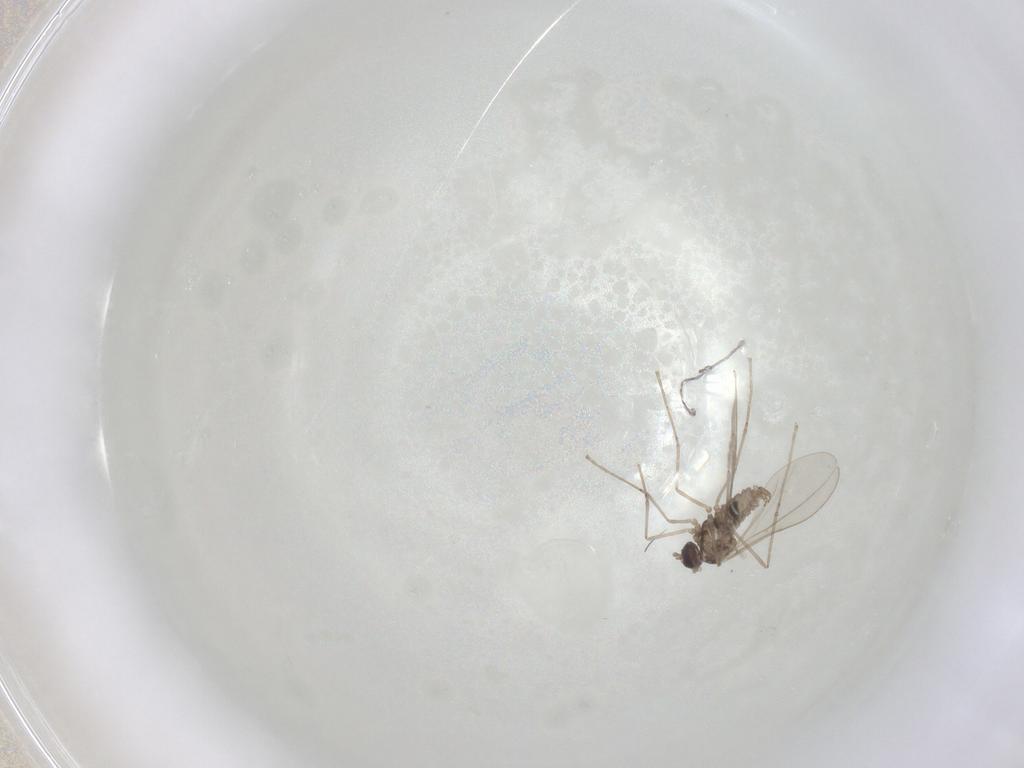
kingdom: Animalia
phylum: Arthropoda
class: Insecta
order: Diptera
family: Cecidomyiidae
